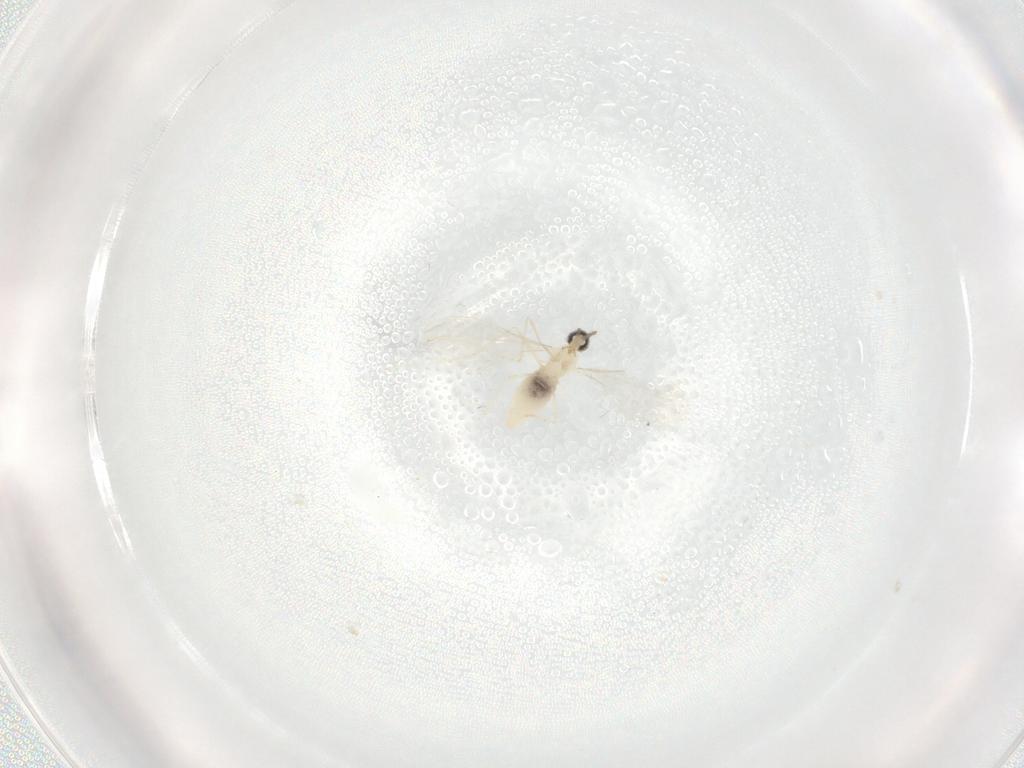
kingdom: Animalia
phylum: Arthropoda
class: Insecta
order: Diptera
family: Cecidomyiidae
